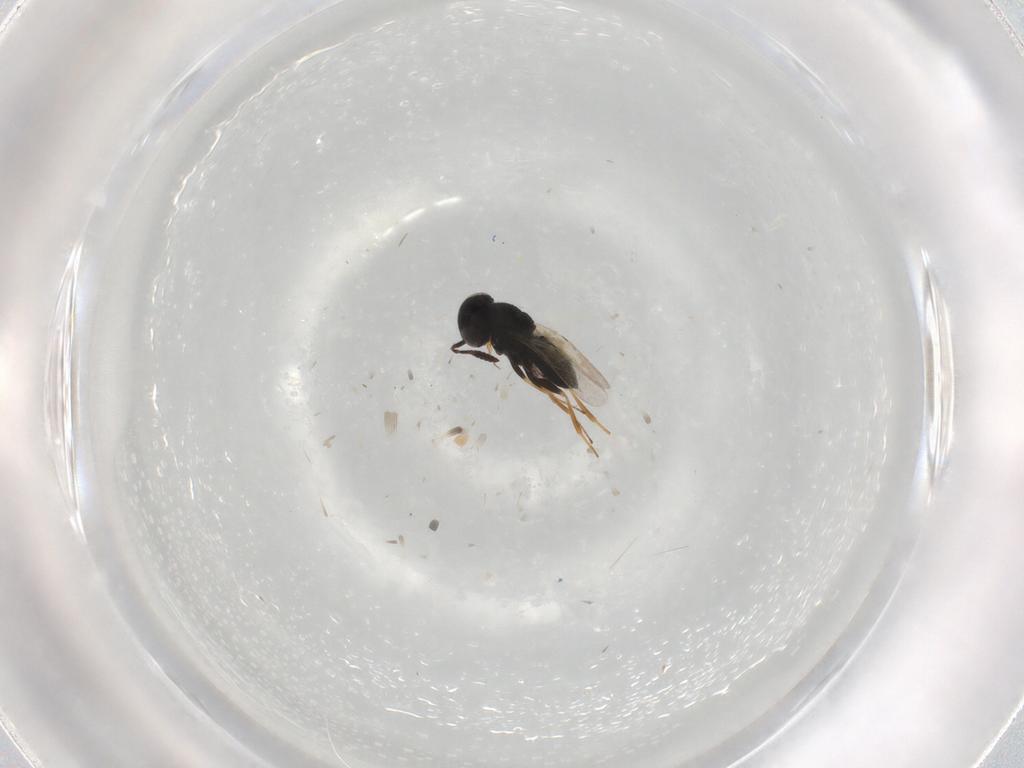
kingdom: Animalia
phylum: Arthropoda
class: Insecta
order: Hymenoptera
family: Scelionidae
